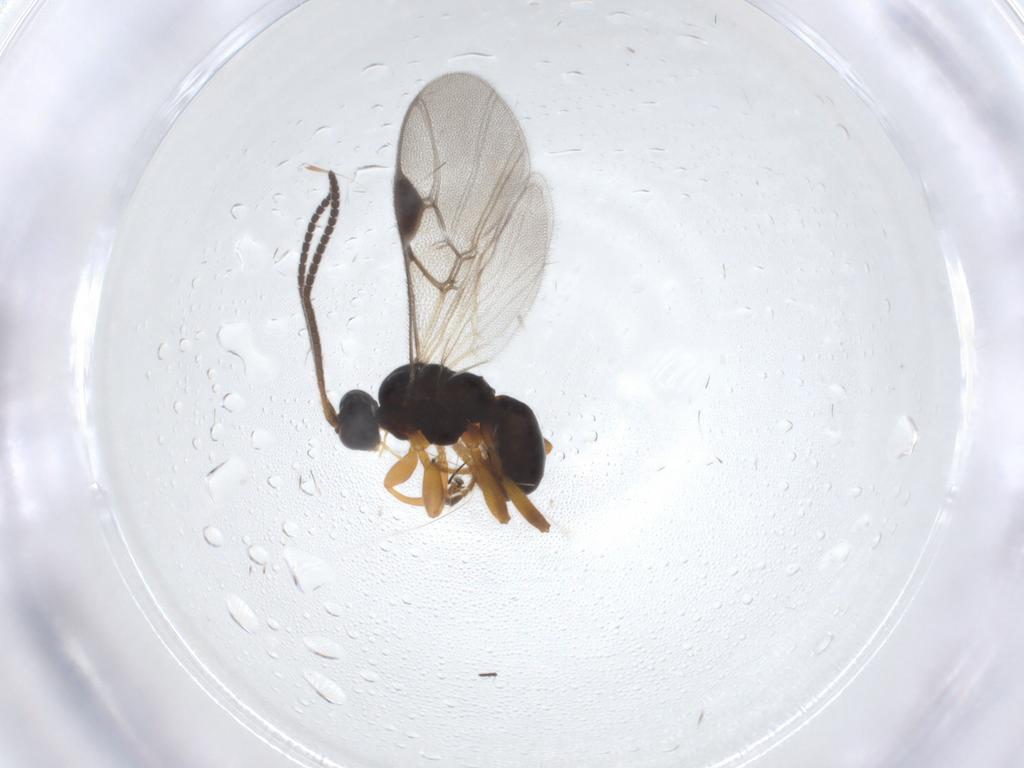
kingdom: Animalia
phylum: Arthropoda
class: Insecta
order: Hymenoptera
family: Braconidae
